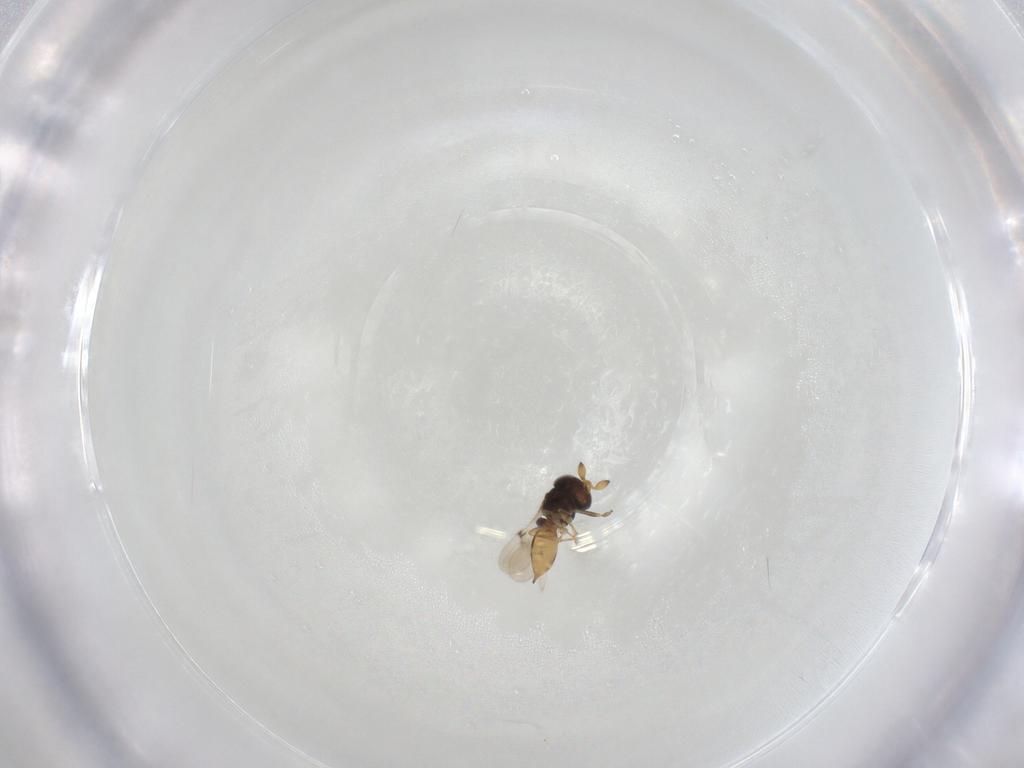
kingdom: Animalia
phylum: Arthropoda
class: Insecta
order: Hymenoptera
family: Scelionidae
